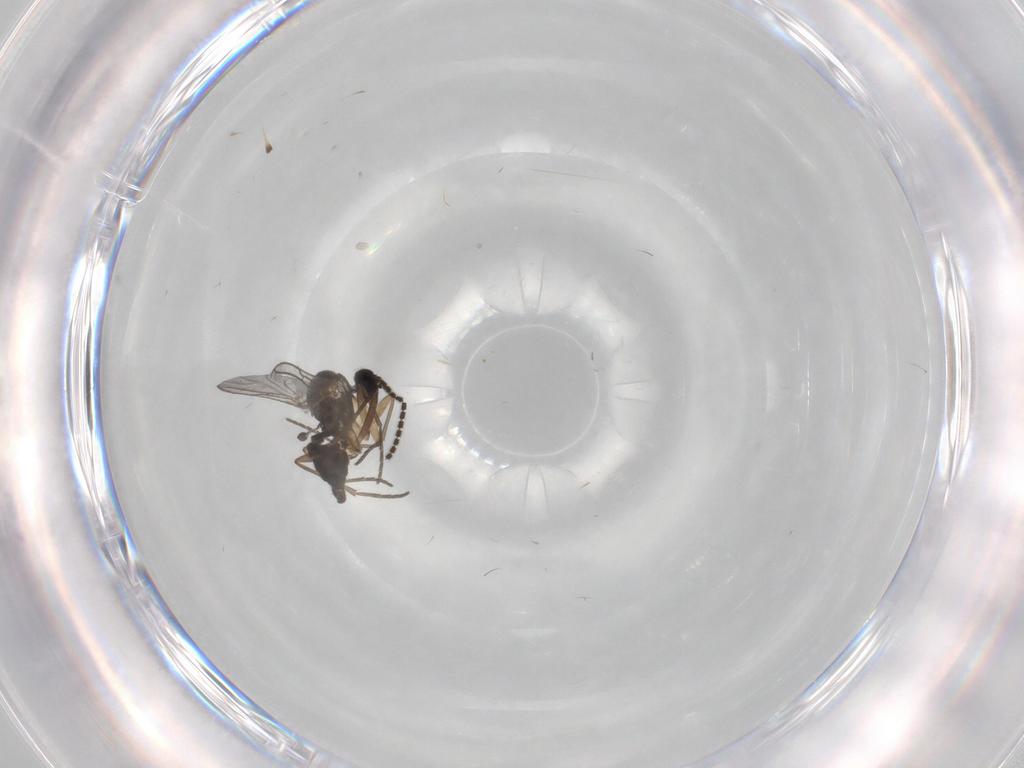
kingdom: Animalia
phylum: Arthropoda
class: Insecta
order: Diptera
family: Sciaridae
